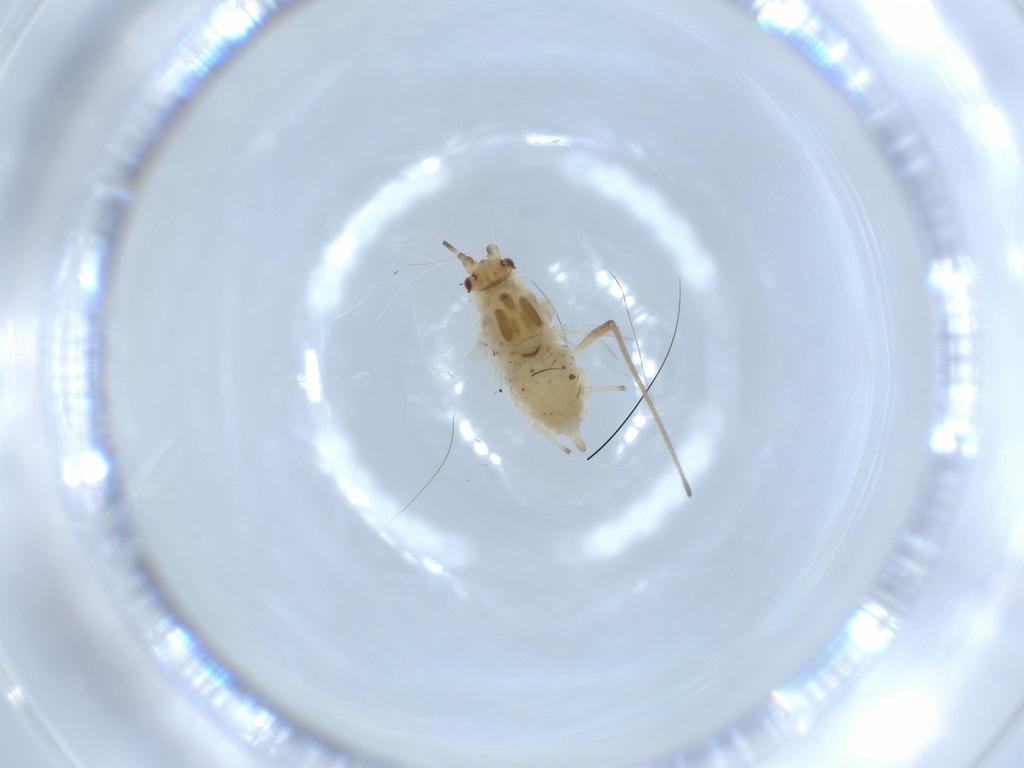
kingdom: Animalia
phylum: Arthropoda
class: Insecta
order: Hemiptera
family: Aphididae
